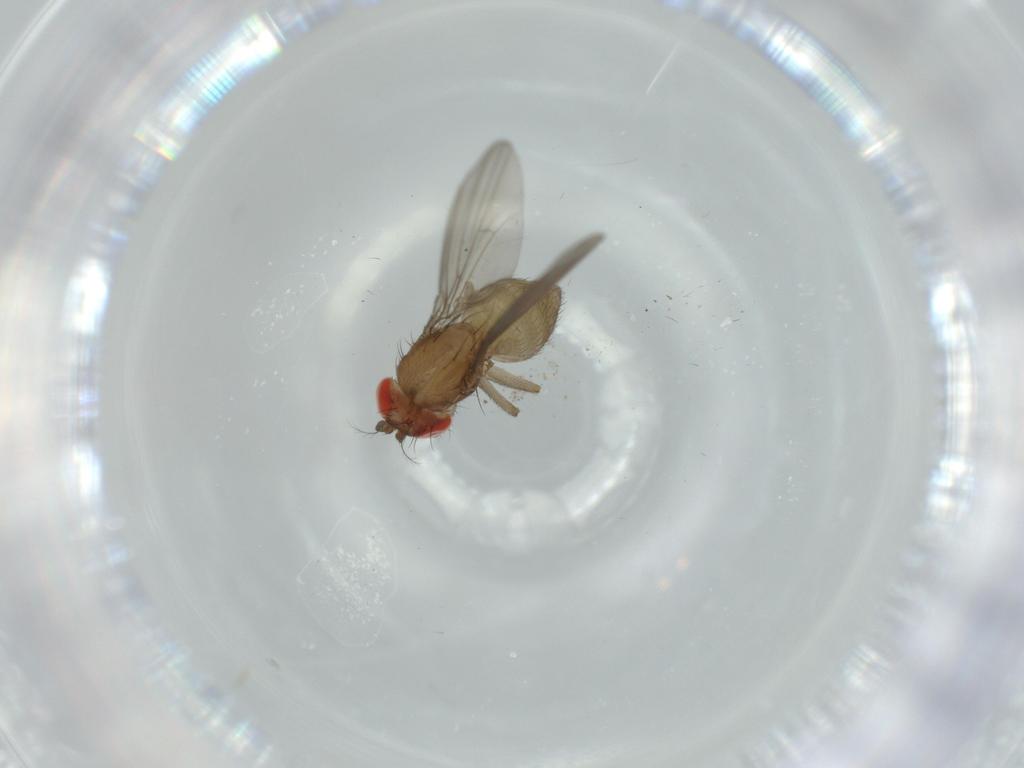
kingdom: Animalia
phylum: Arthropoda
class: Insecta
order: Diptera
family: Drosophilidae
